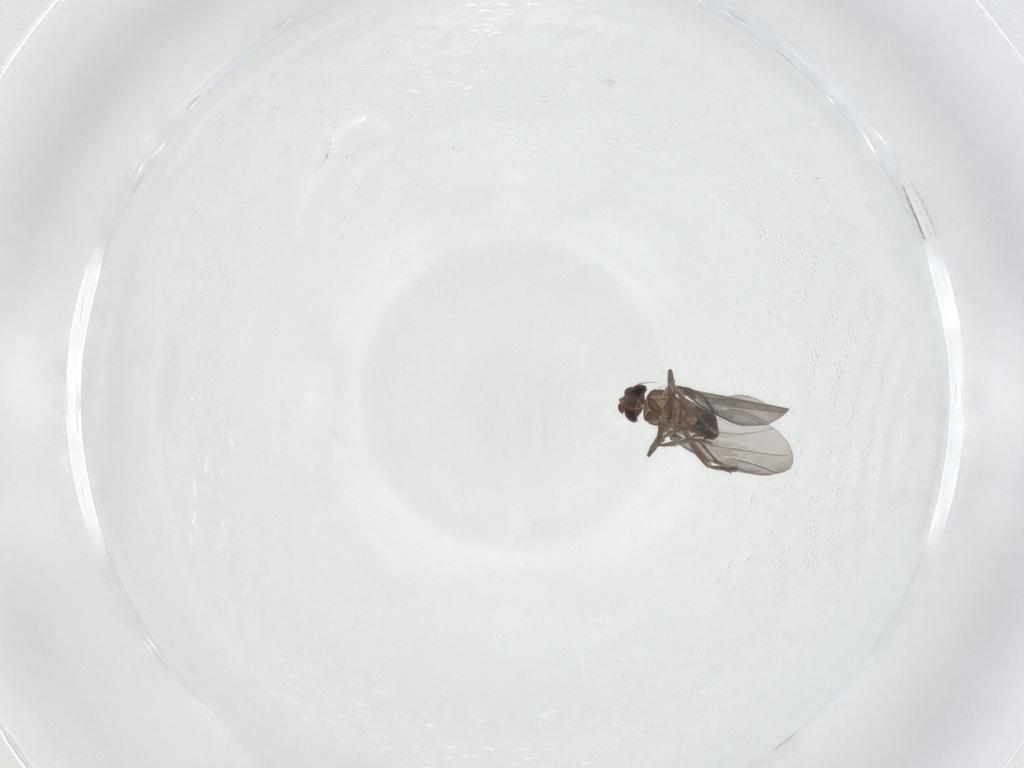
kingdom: Animalia
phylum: Arthropoda
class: Insecta
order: Diptera
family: Phoridae
